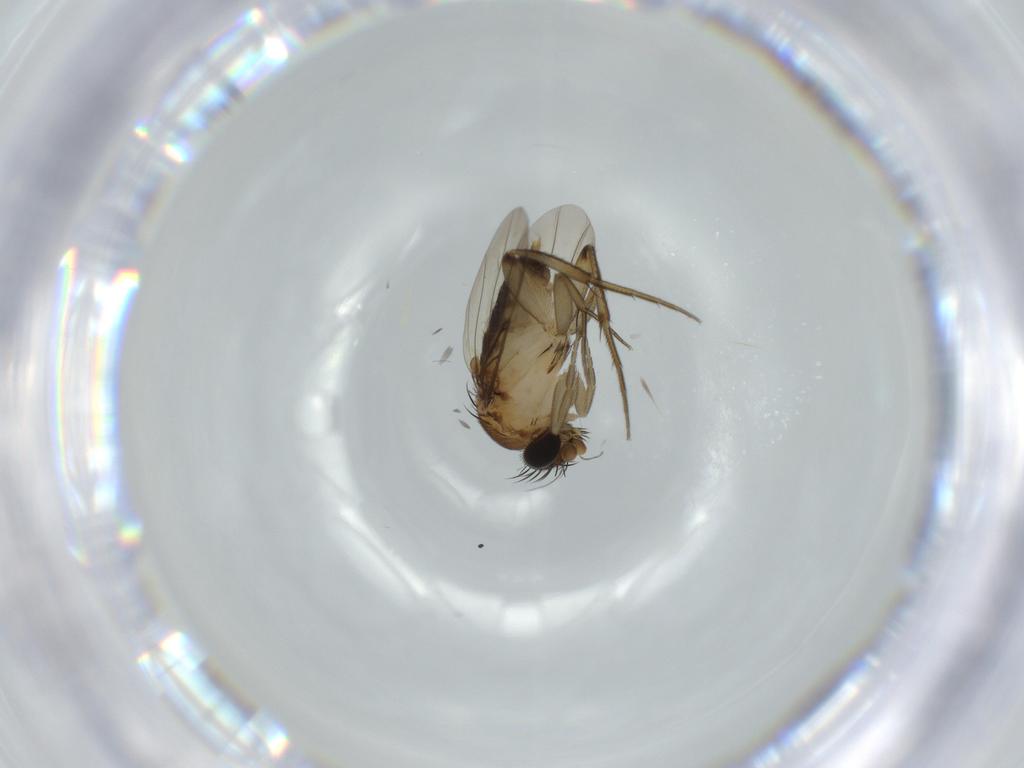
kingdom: Animalia
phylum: Arthropoda
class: Insecta
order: Diptera
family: Phoridae
